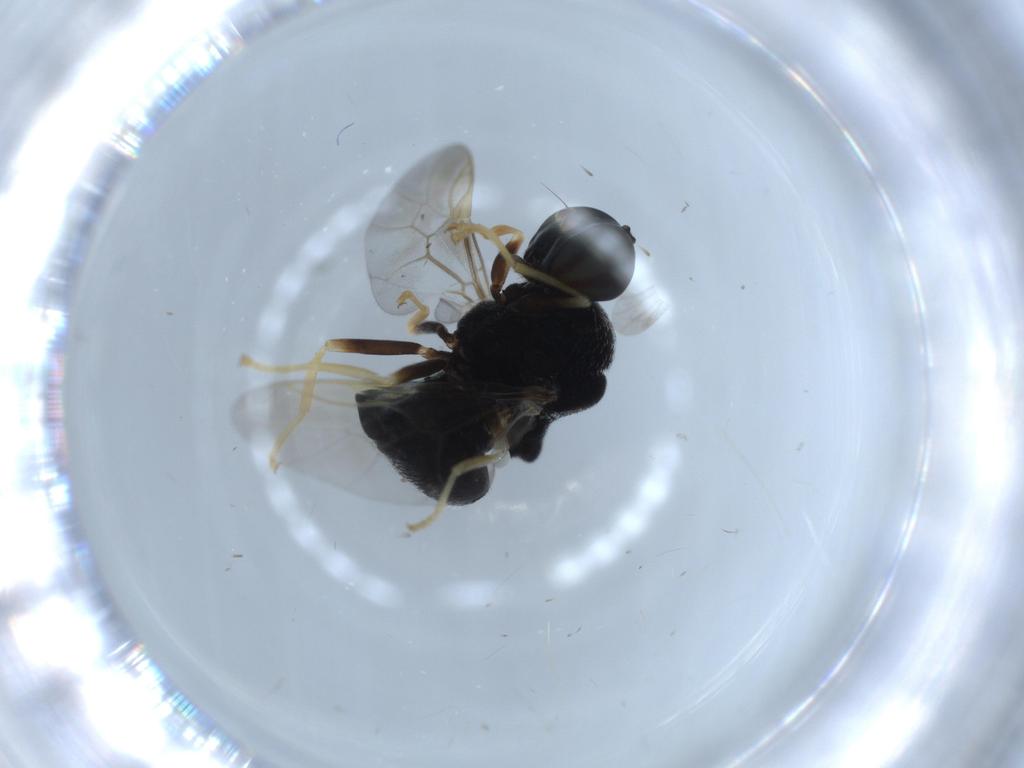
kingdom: Animalia
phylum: Arthropoda
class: Insecta
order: Diptera
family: Stratiomyidae
